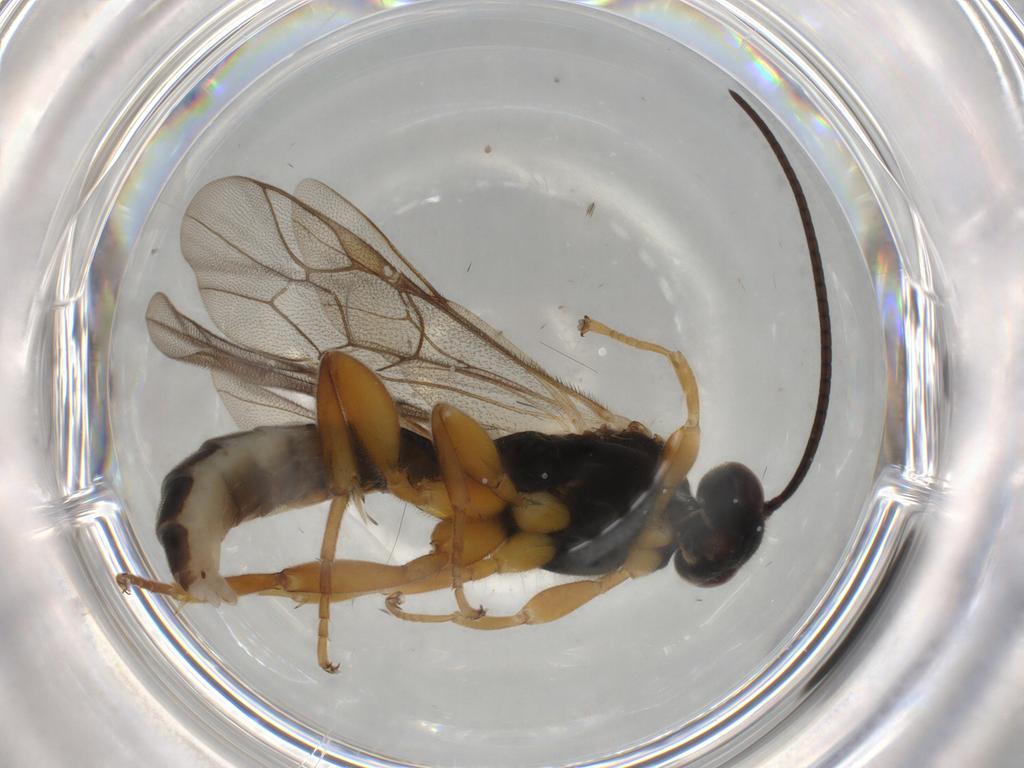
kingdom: Animalia
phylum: Arthropoda
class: Insecta
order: Hymenoptera
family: Ichneumonidae
